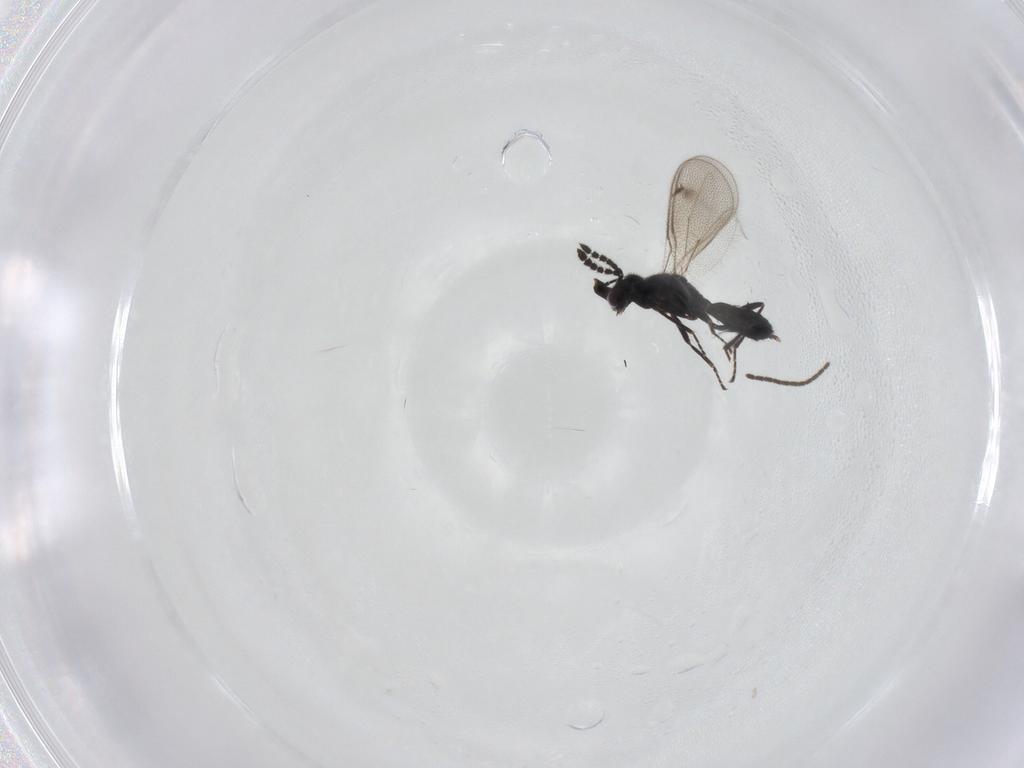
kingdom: Animalia
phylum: Arthropoda
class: Insecta
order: Hymenoptera
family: Eulophidae
